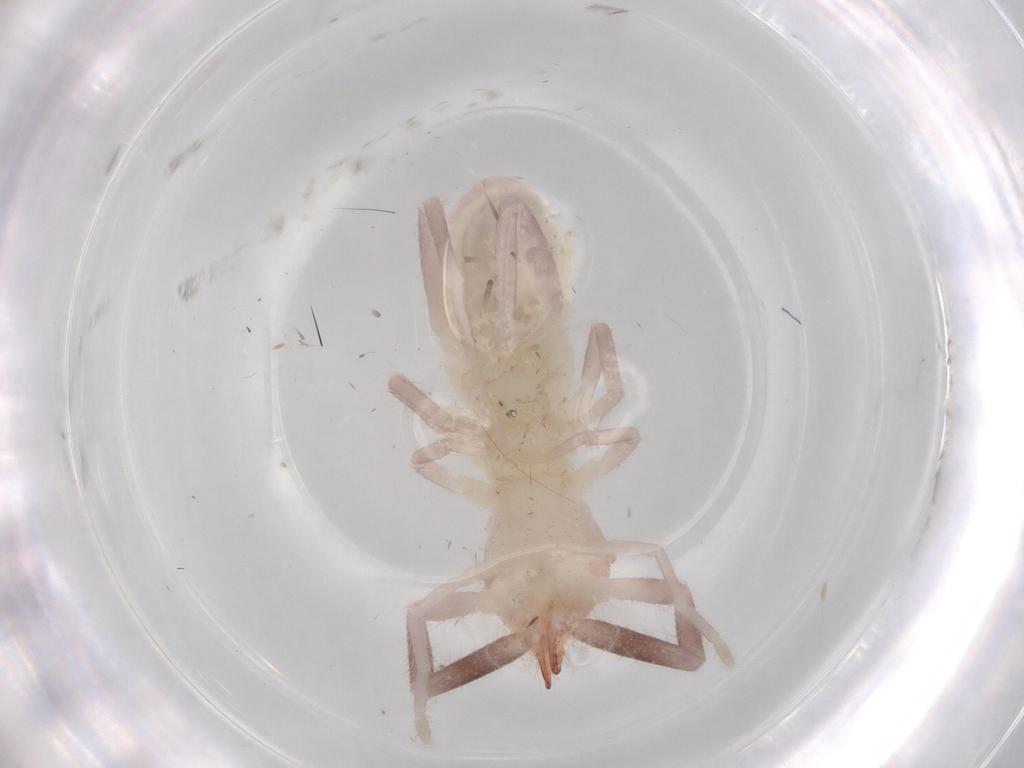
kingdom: Animalia
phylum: Arthropoda
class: Arachnida
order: Solifugae
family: Ammotrechidae
